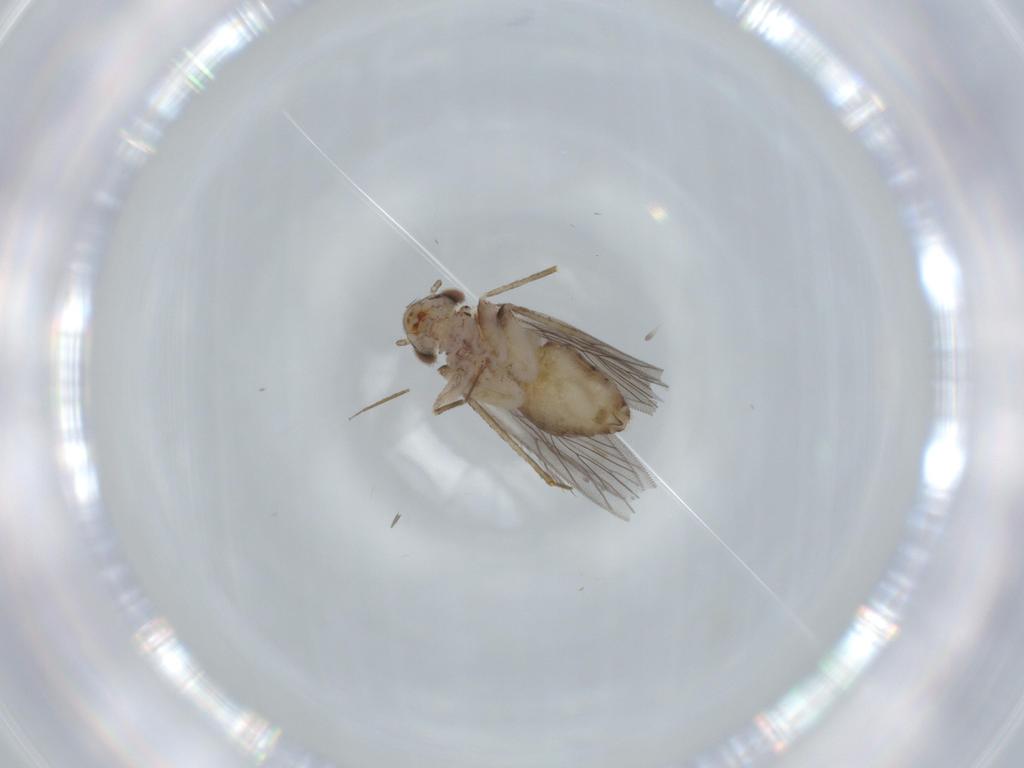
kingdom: Animalia
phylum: Arthropoda
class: Insecta
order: Psocodea
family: Lepidopsocidae
